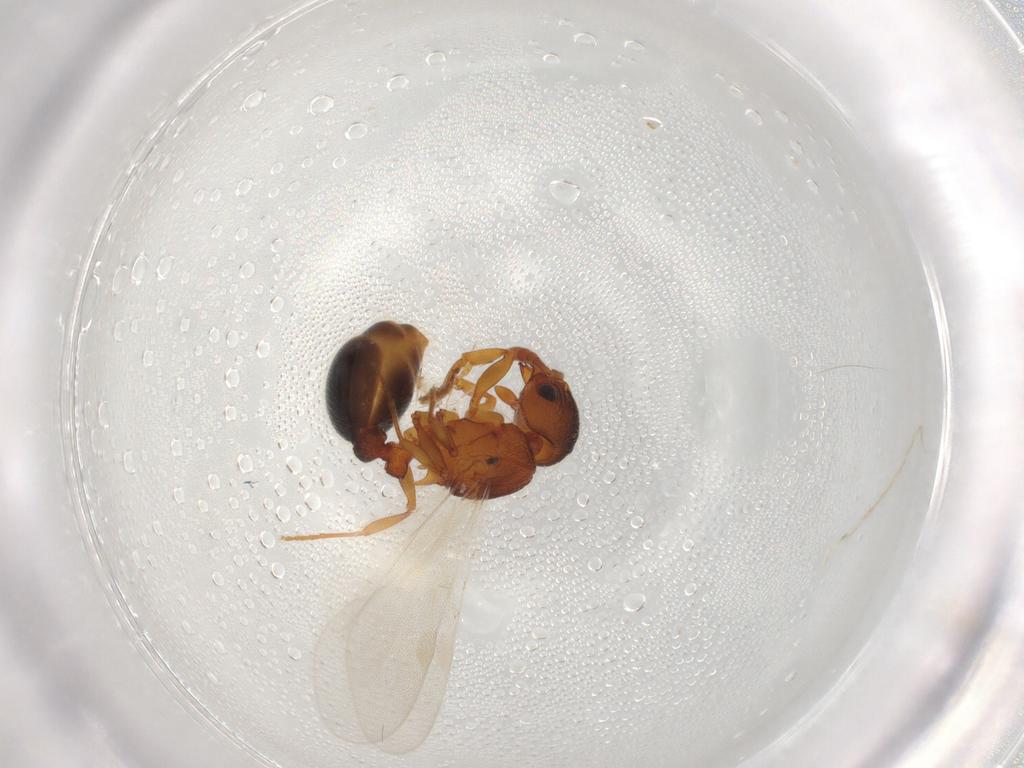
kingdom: Animalia
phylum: Arthropoda
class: Insecta
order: Hymenoptera
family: Formicidae
